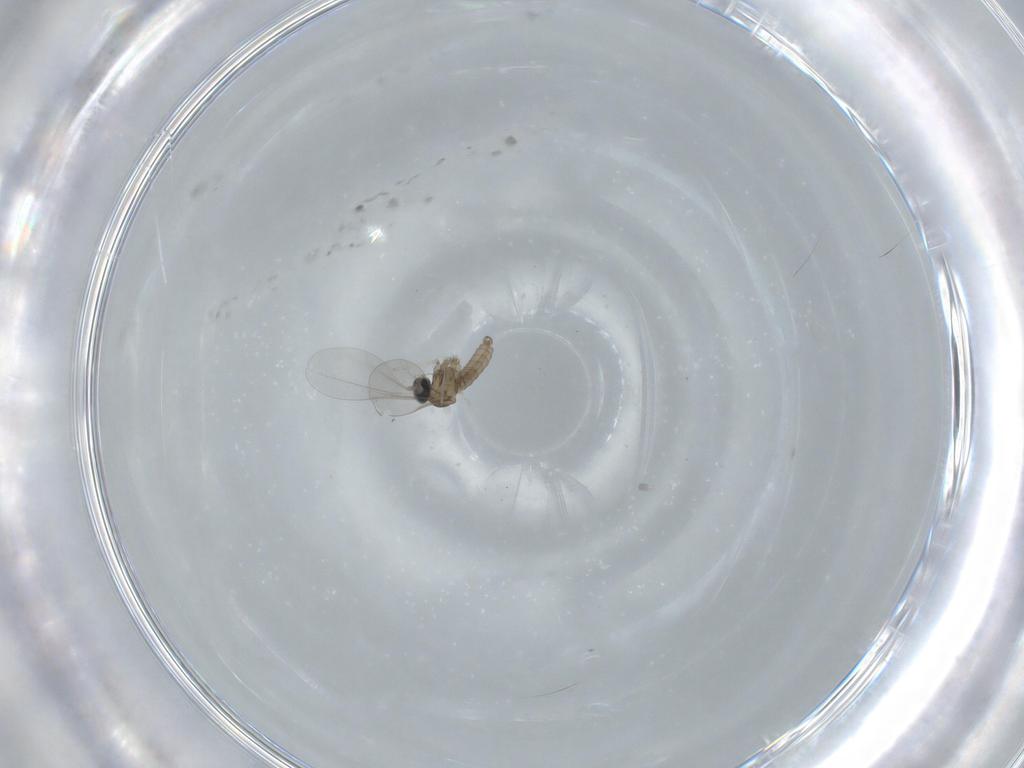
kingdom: Animalia
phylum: Arthropoda
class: Insecta
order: Diptera
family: Cecidomyiidae
